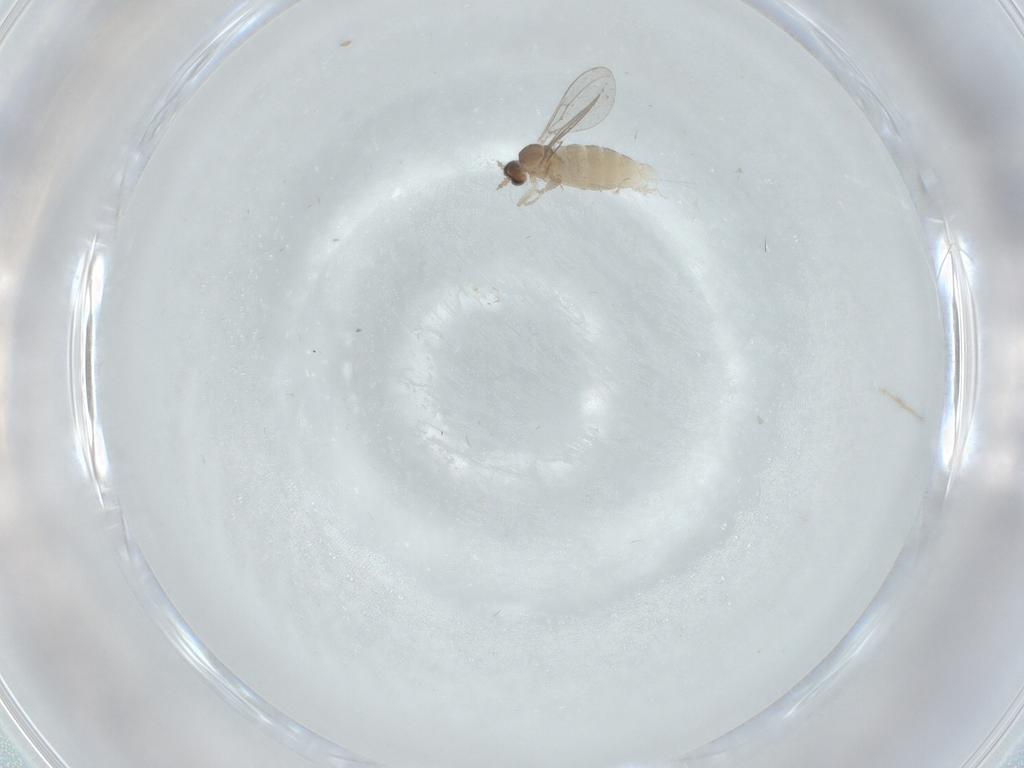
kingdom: Animalia
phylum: Arthropoda
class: Insecta
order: Diptera
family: Cecidomyiidae
